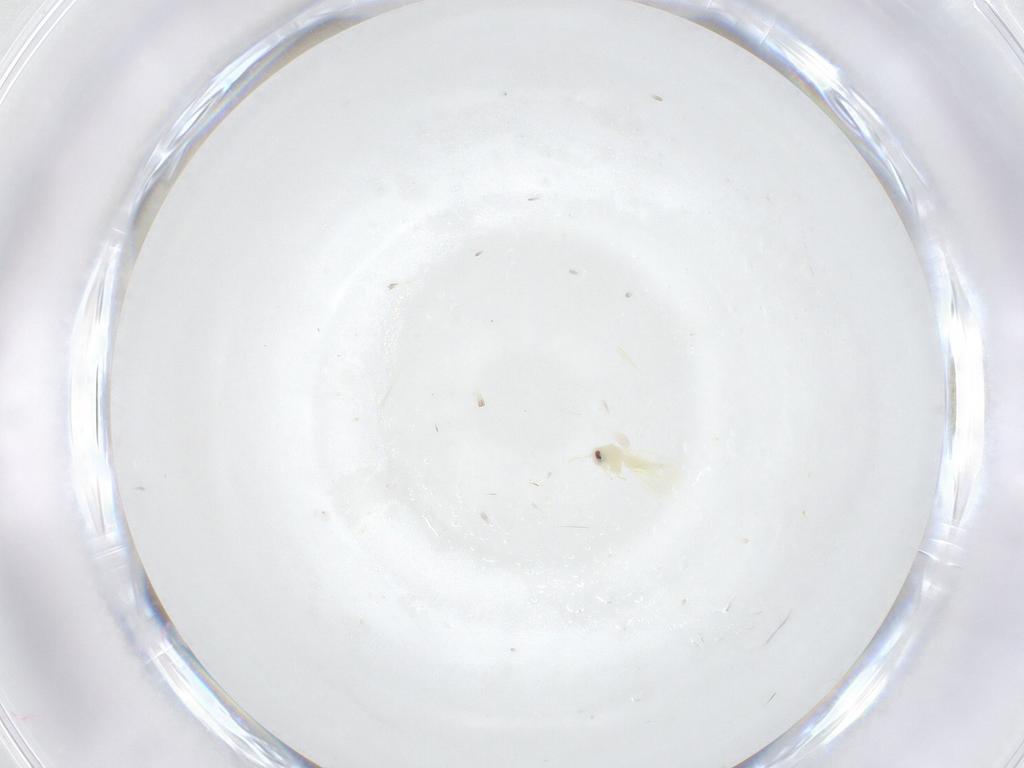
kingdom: Animalia
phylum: Arthropoda
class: Insecta
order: Hemiptera
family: Aleyrodidae
